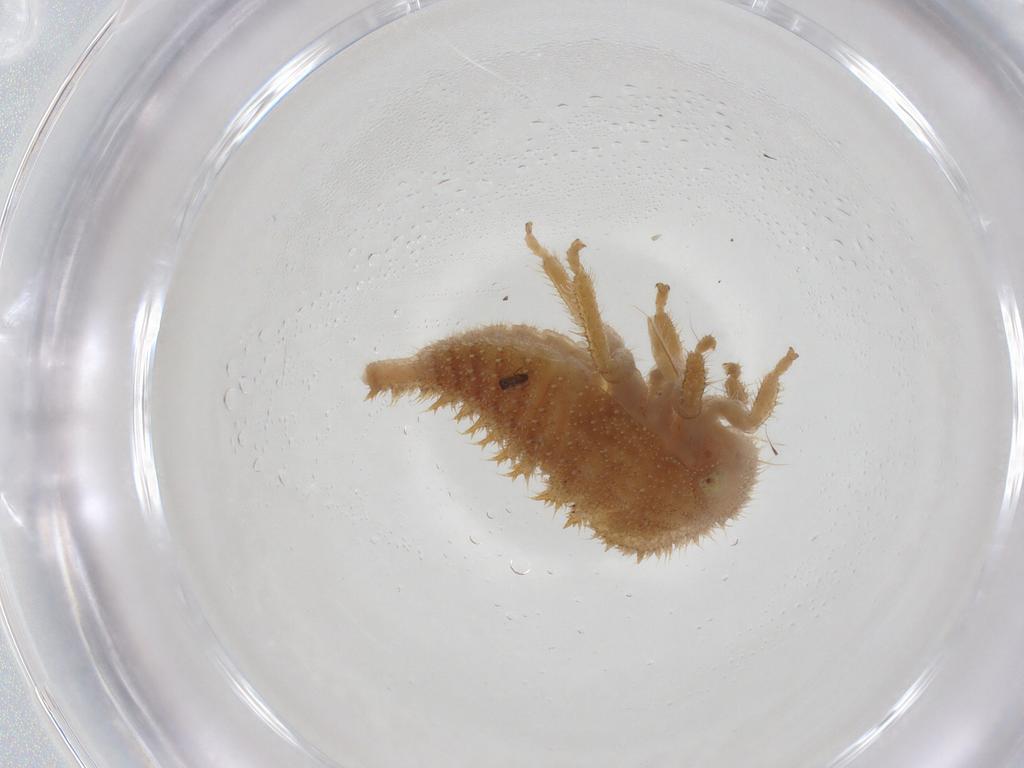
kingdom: Animalia
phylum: Arthropoda
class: Insecta
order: Hemiptera
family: Membracidae
